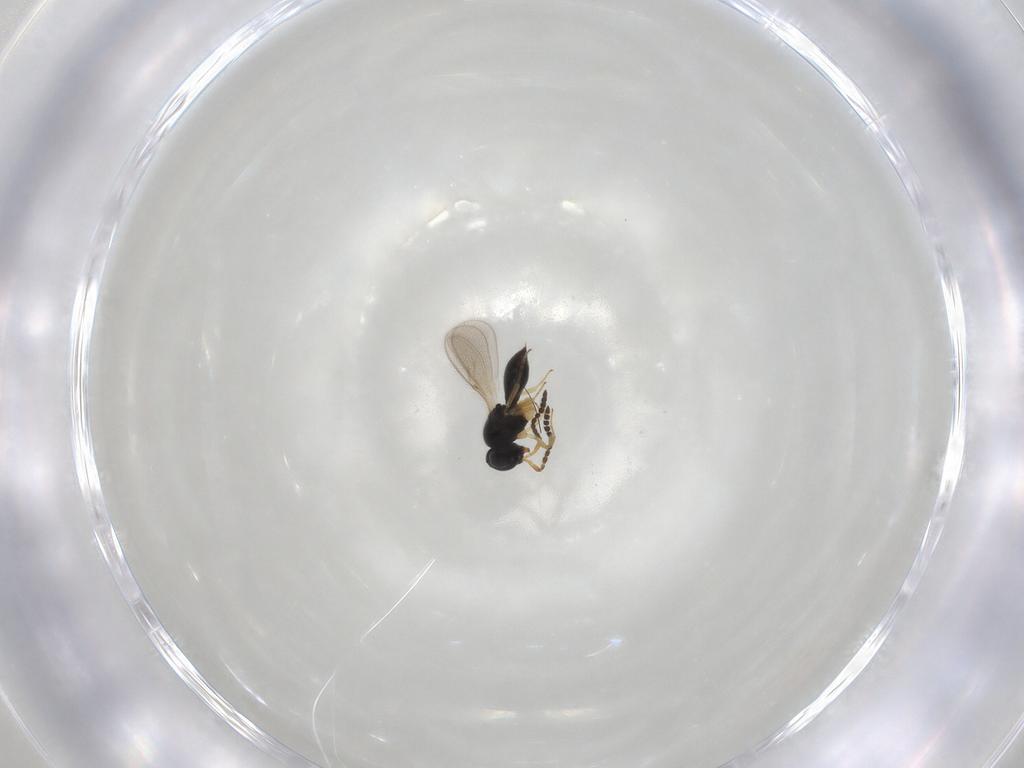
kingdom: Animalia
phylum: Arthropoda
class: Insecta
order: Hymenoptera
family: Scelionidae
